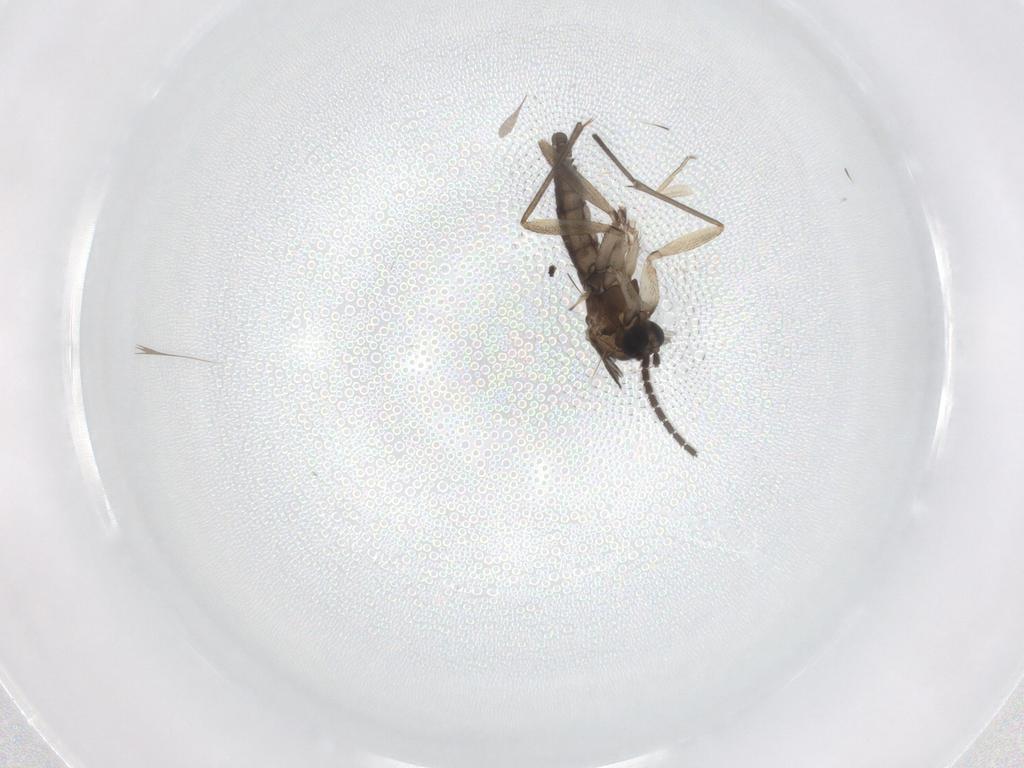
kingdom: Animalia
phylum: Arthropoda
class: Insecta
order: Diptera
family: Sciaridae
